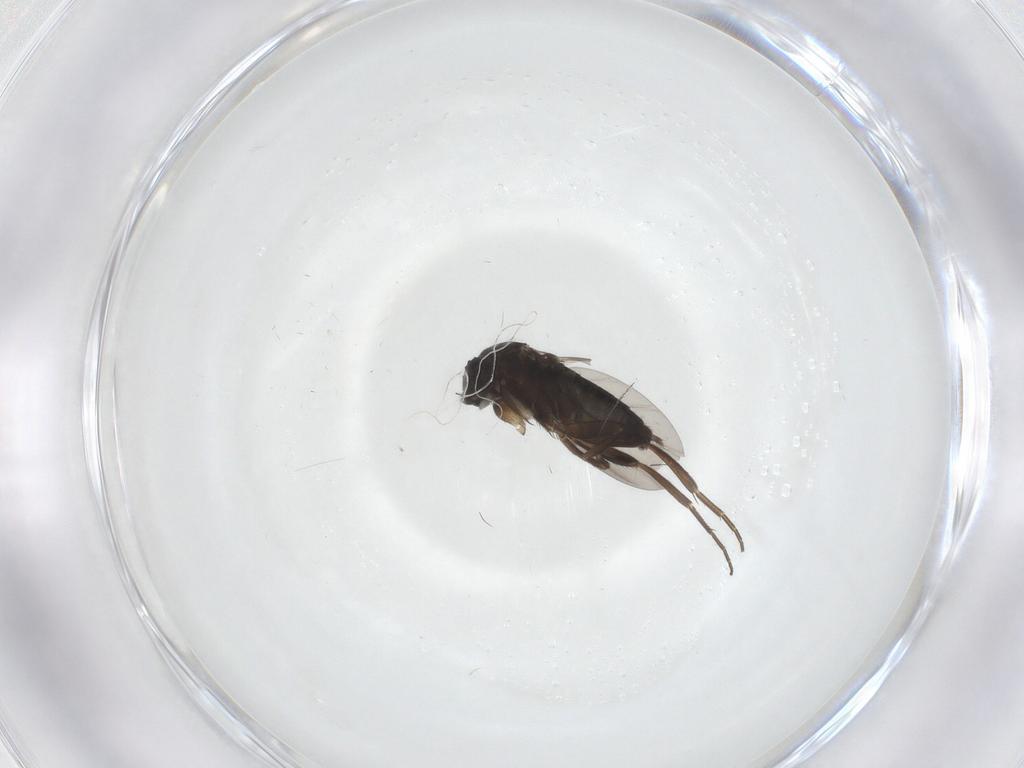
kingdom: Animalia
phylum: Arthropoda
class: Insecta
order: Diptera
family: Phoridae
